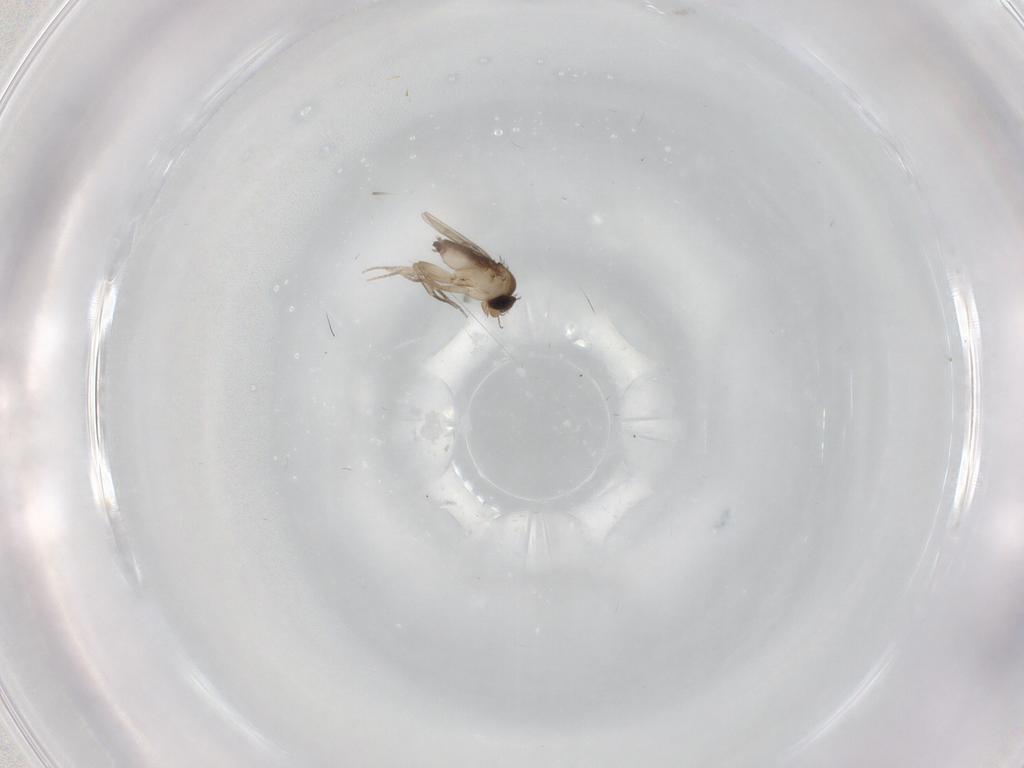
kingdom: Animalia
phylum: Arthropoda
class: Insecta
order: Diptera
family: Phoridae
